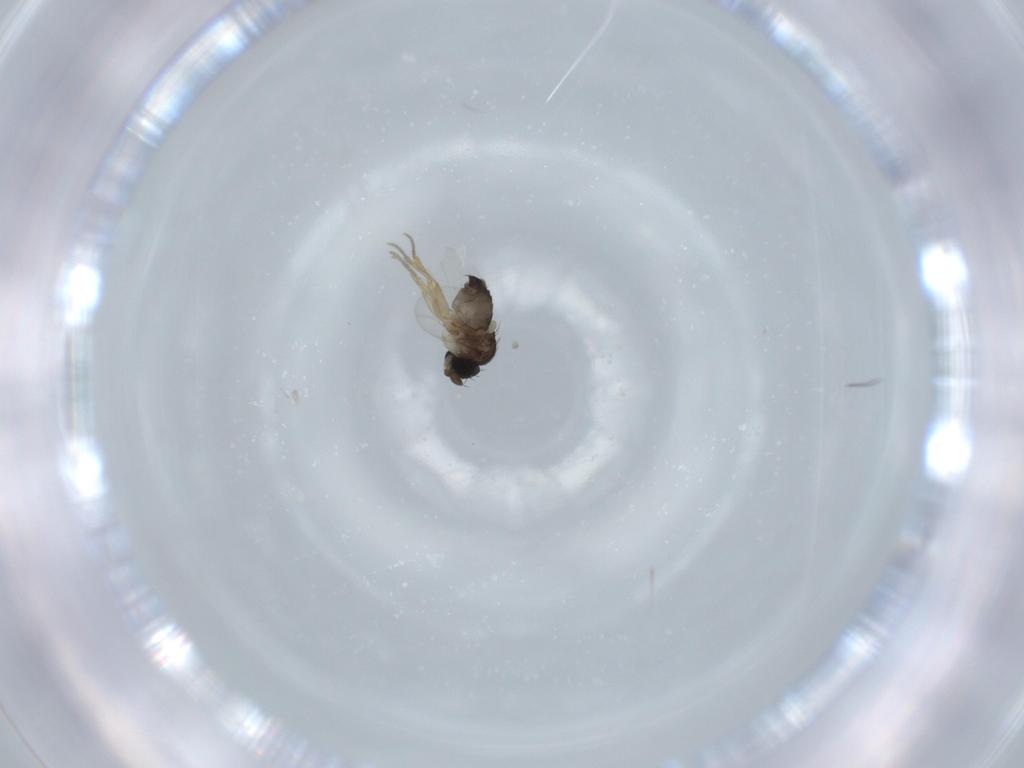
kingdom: Animalia
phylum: Arthropoda
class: Insecta
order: Diptera
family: Phoridae
